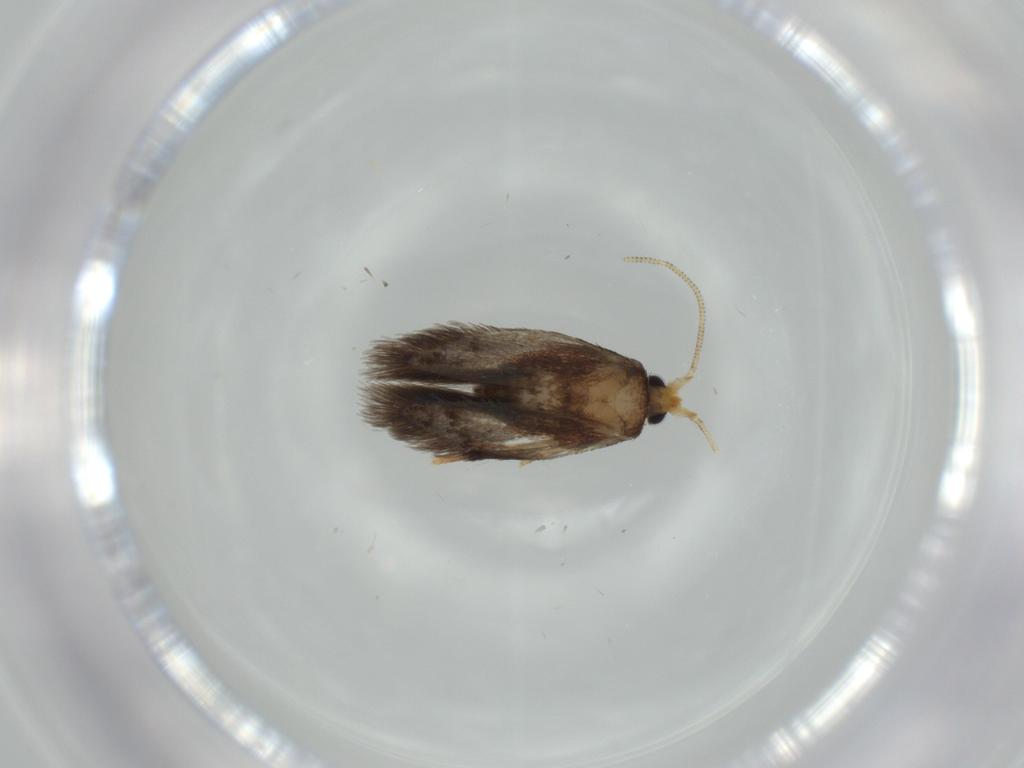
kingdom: Animalia
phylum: Arthropoda
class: Insecta
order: Lepidoptera
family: Nepticulidae
